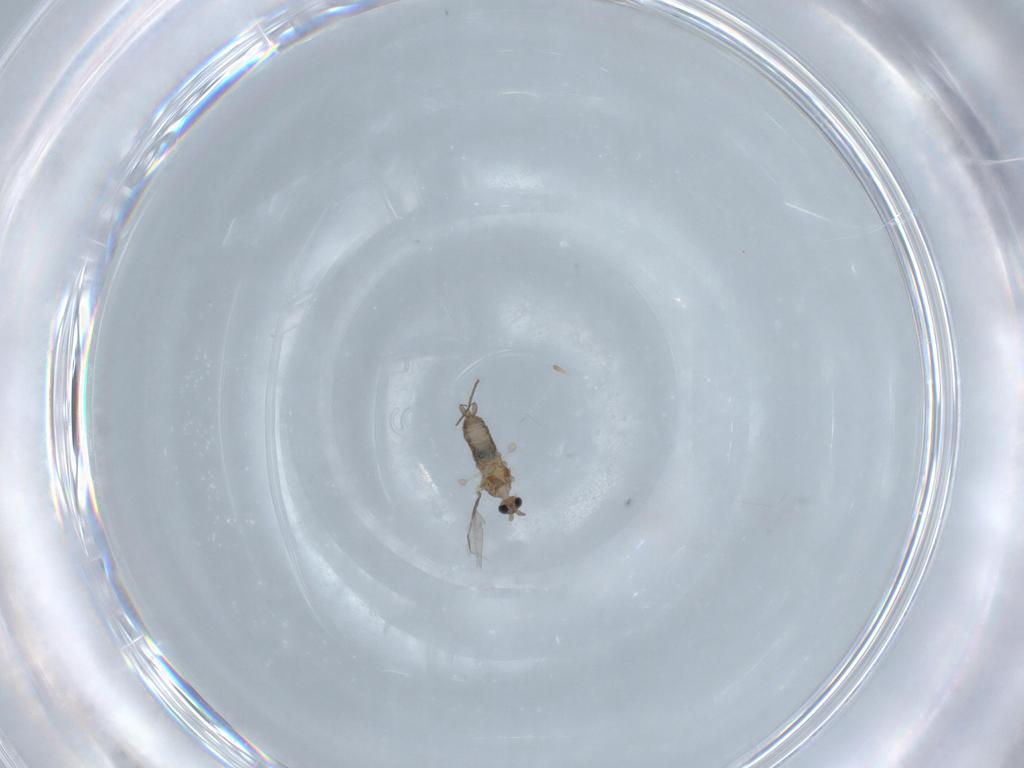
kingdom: Animalia
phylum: Arthropoda
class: Insecta
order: Diptera
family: Cecidomyiidae
